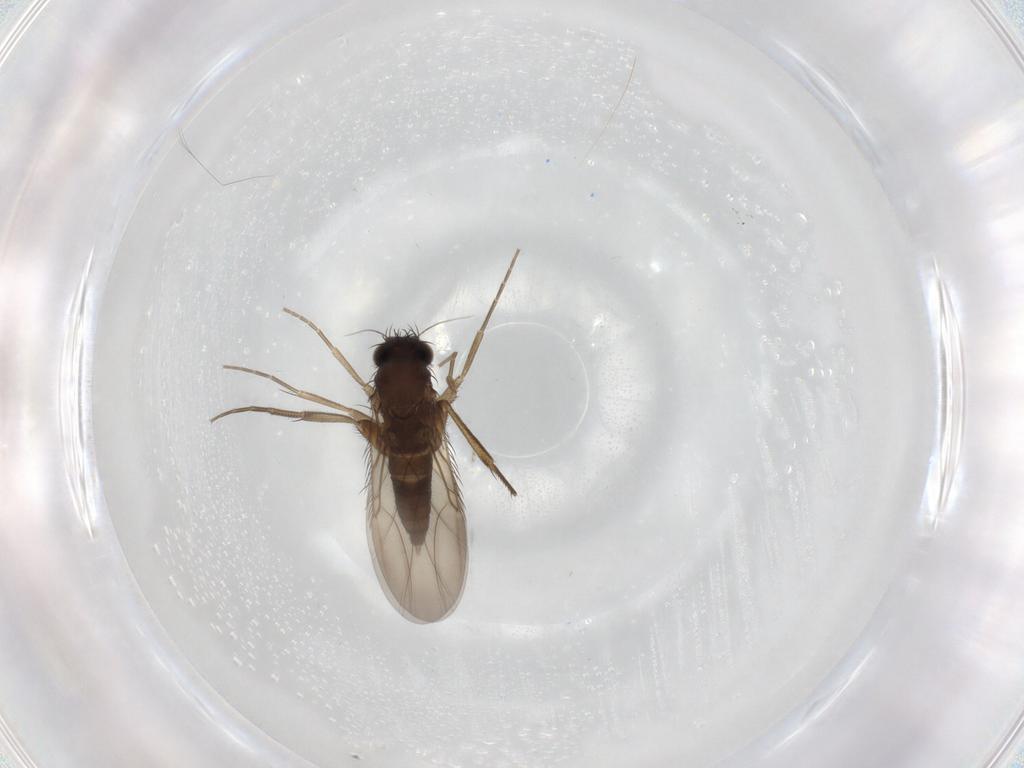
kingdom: Animalia
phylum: Arthropoda
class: Insecta
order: Diptera
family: Phoridae
